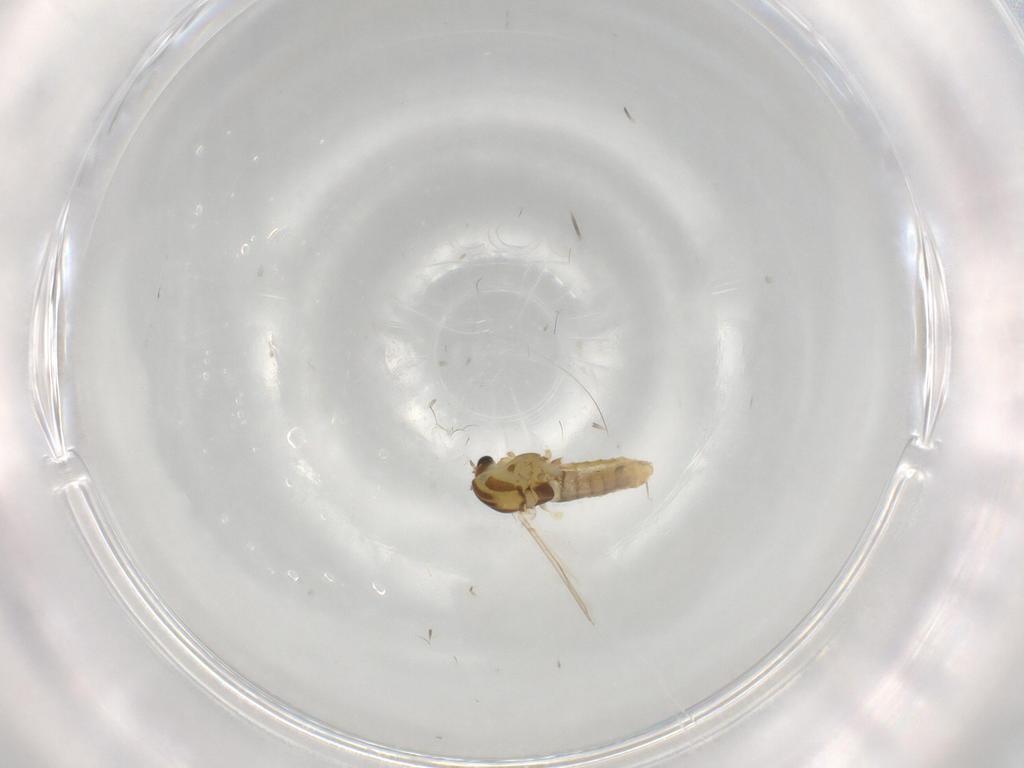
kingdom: Animalia
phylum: Arthropoda
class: Insecta
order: Diptera
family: Chironomidae
